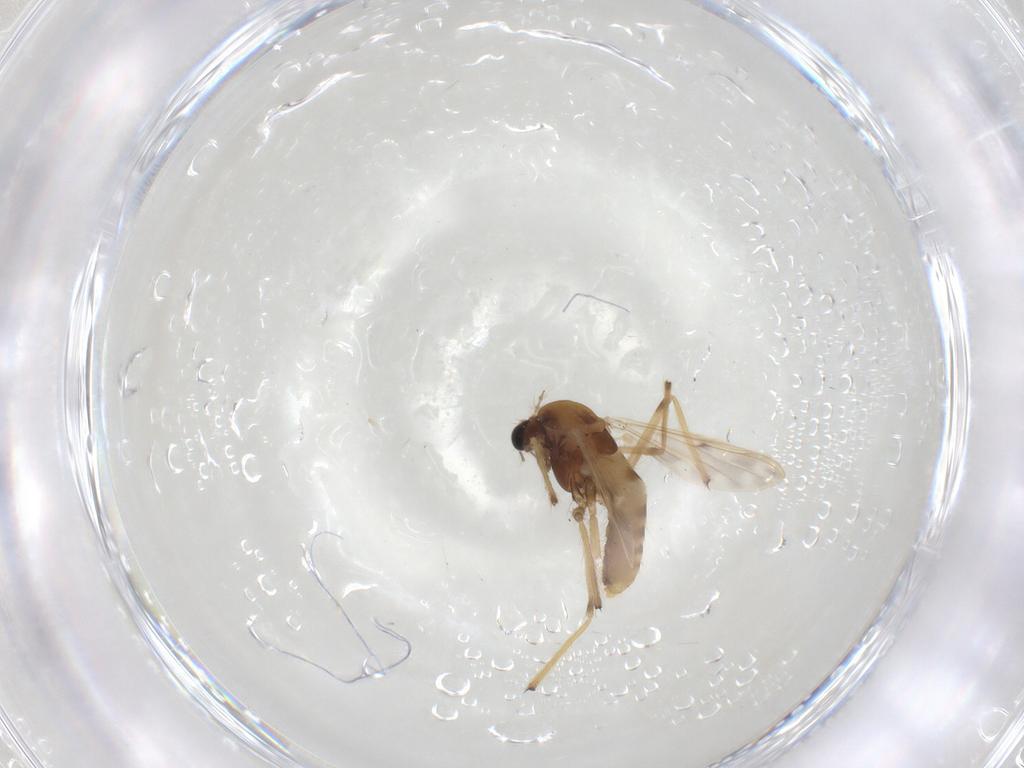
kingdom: Animalia
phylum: Arthropoda
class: Insecta
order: Diptera
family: Chironomidae
